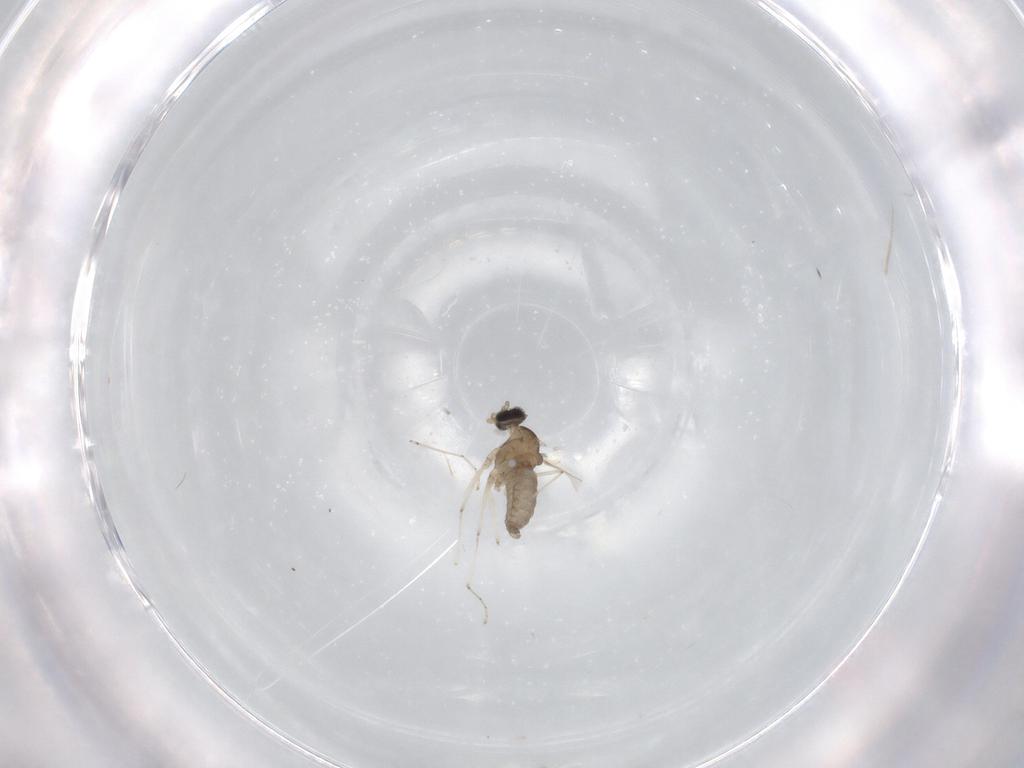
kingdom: Animalia
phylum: Arthropoda
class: Insecta
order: Diptera
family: Cecidomyiidae
